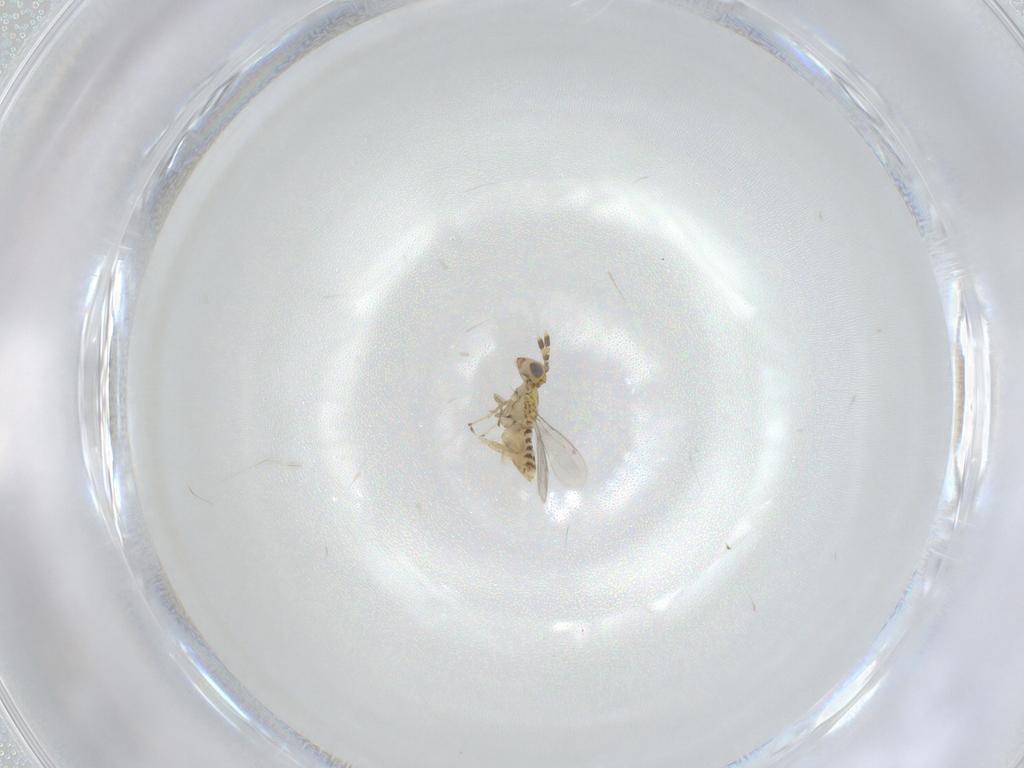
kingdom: Animalia
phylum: Arthropoda
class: Insecta
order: Hymenoptera
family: Aphelinidae
